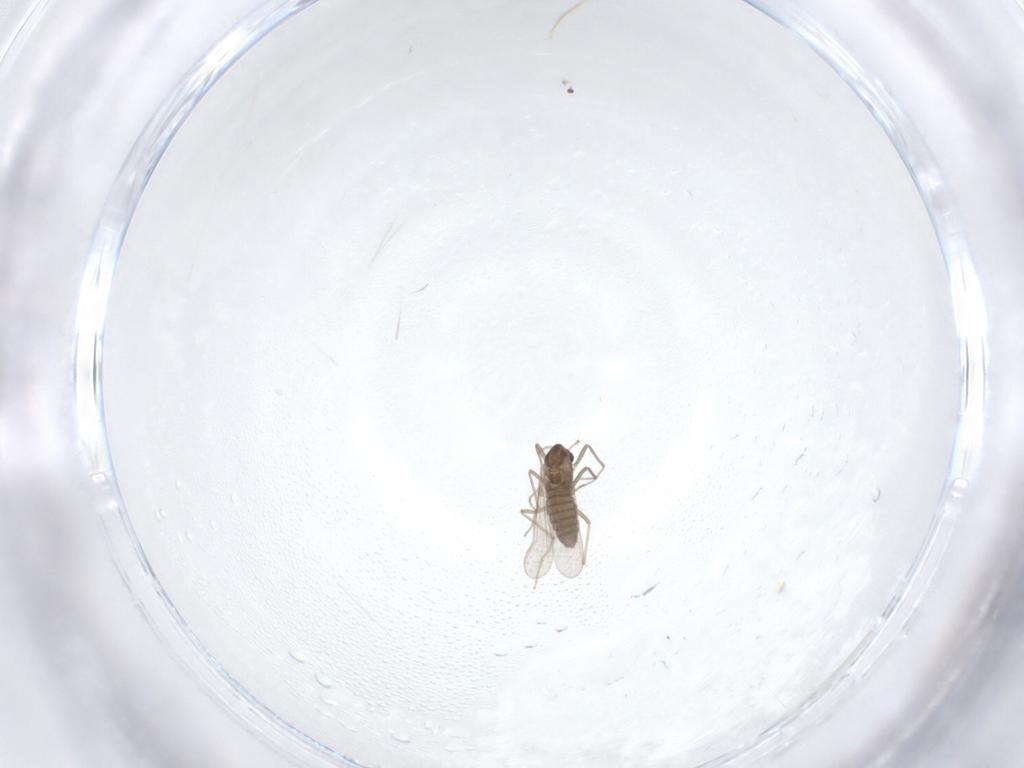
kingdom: Animalia
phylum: Arthropoda
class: Insecta
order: Diptera
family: Chironomidae
